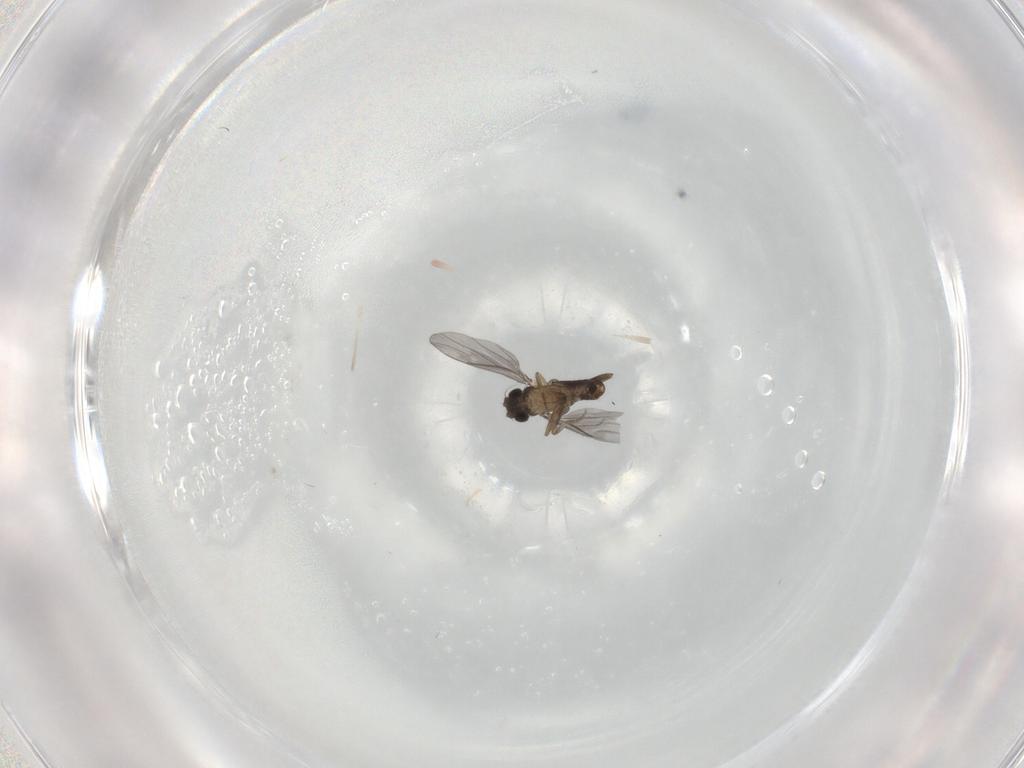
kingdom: Animalia
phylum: Arthropoda
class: Insecta
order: Diptera
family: Cecidomyiidae
